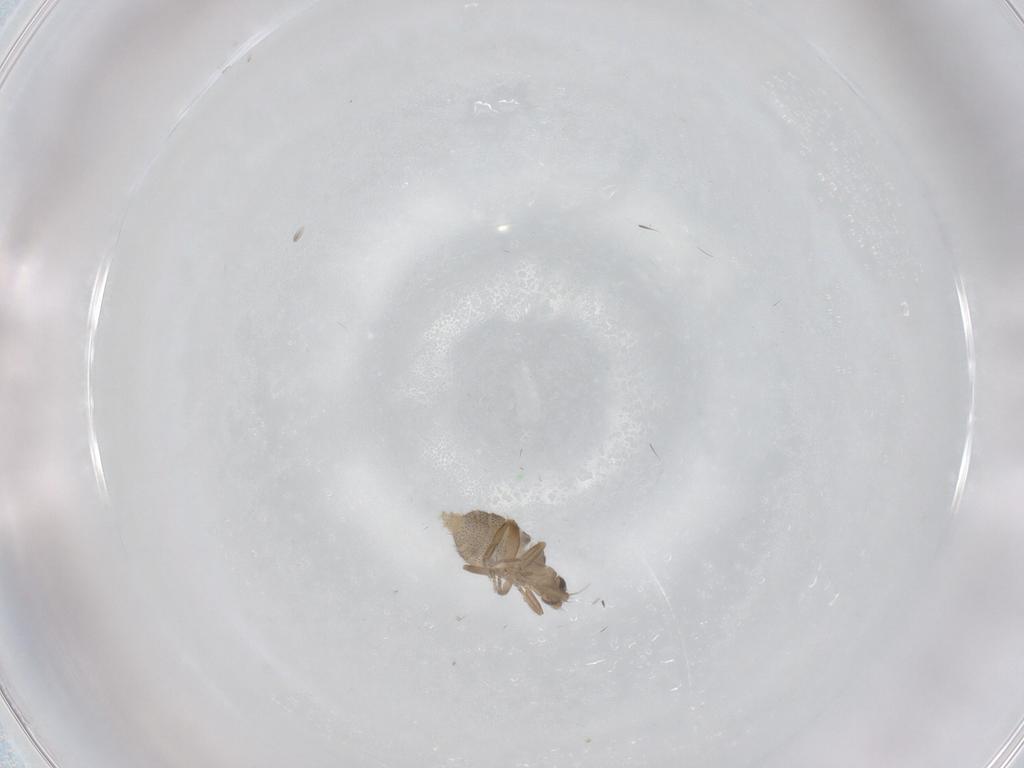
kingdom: Animalia
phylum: Arthropoda
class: Insecta
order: Diptera
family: Phoridae
